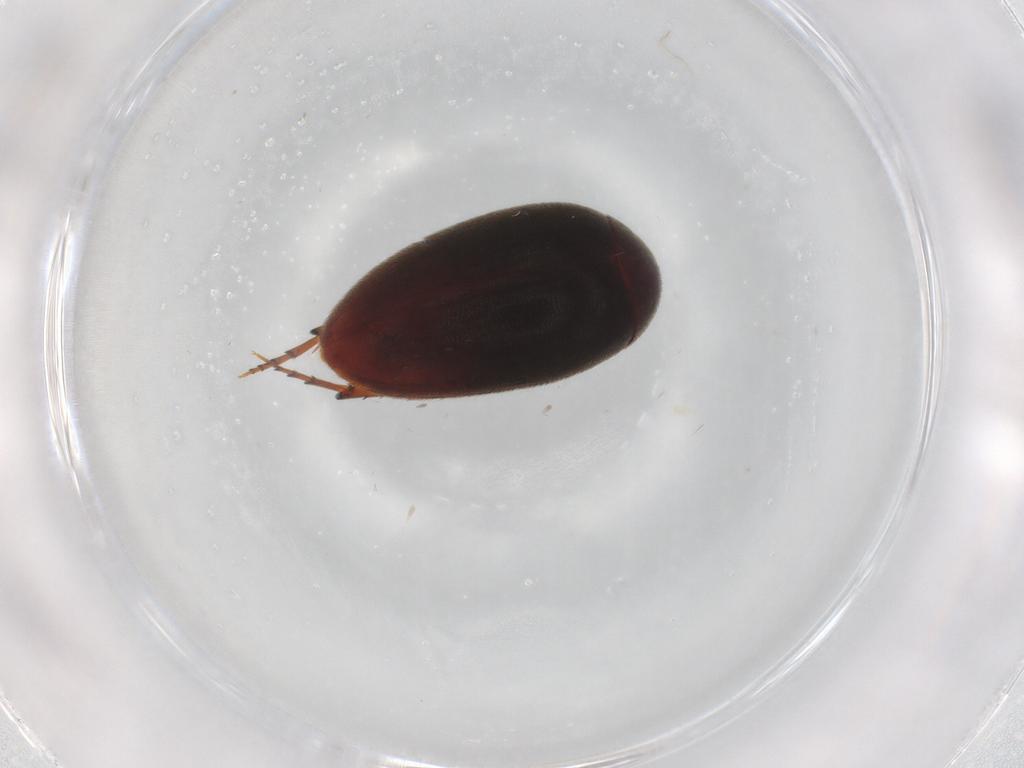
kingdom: Animalia
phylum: Arthropoda
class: Insecta
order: Coleoptera
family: Eucinetidae
